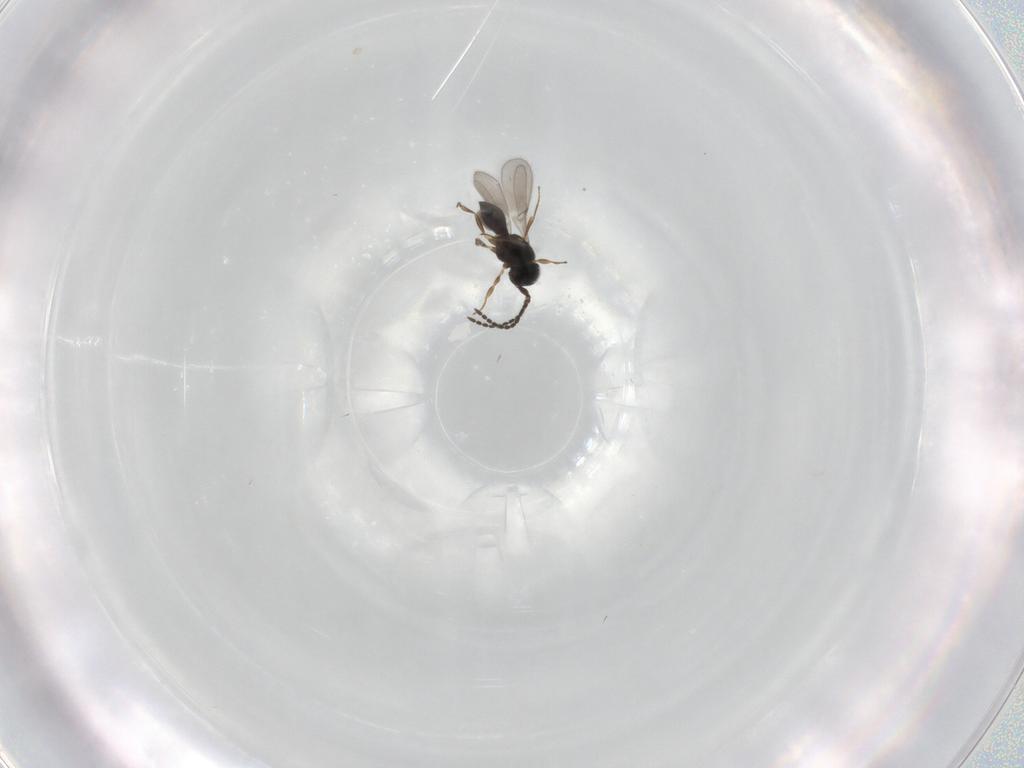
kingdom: Animalia
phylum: Arthropoda
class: Insecta
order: Hymenoptera
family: Scelionidae
